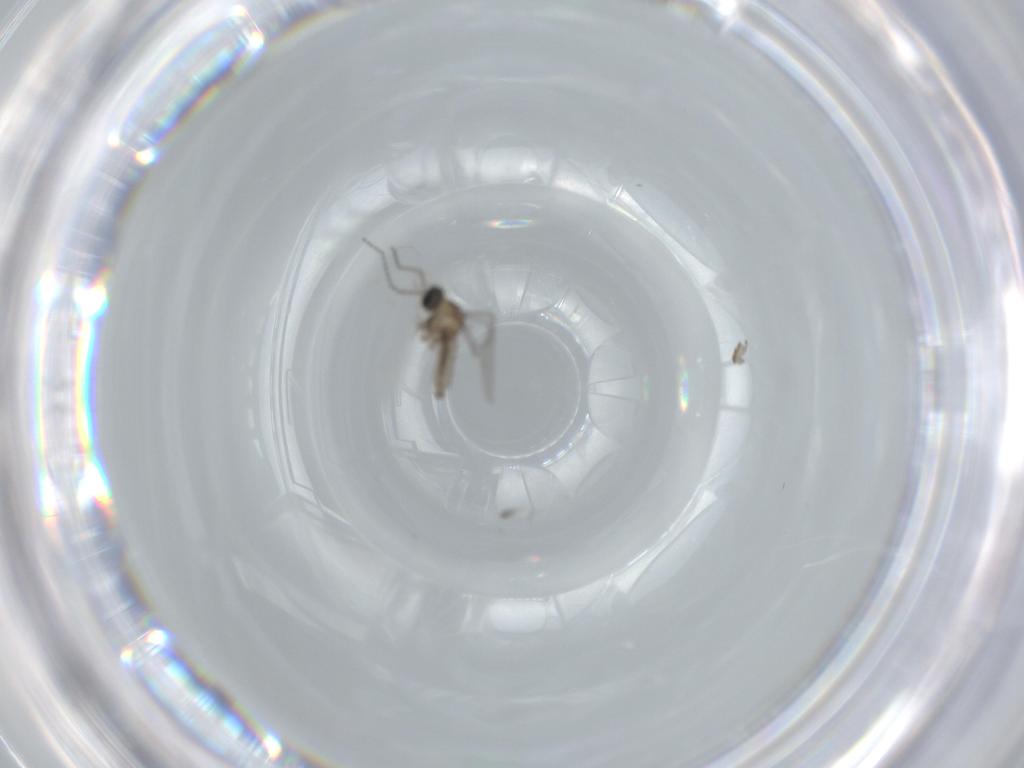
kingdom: Animalia
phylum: Arthropoda
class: Insecta
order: Diptera
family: Cecidomyiidae
